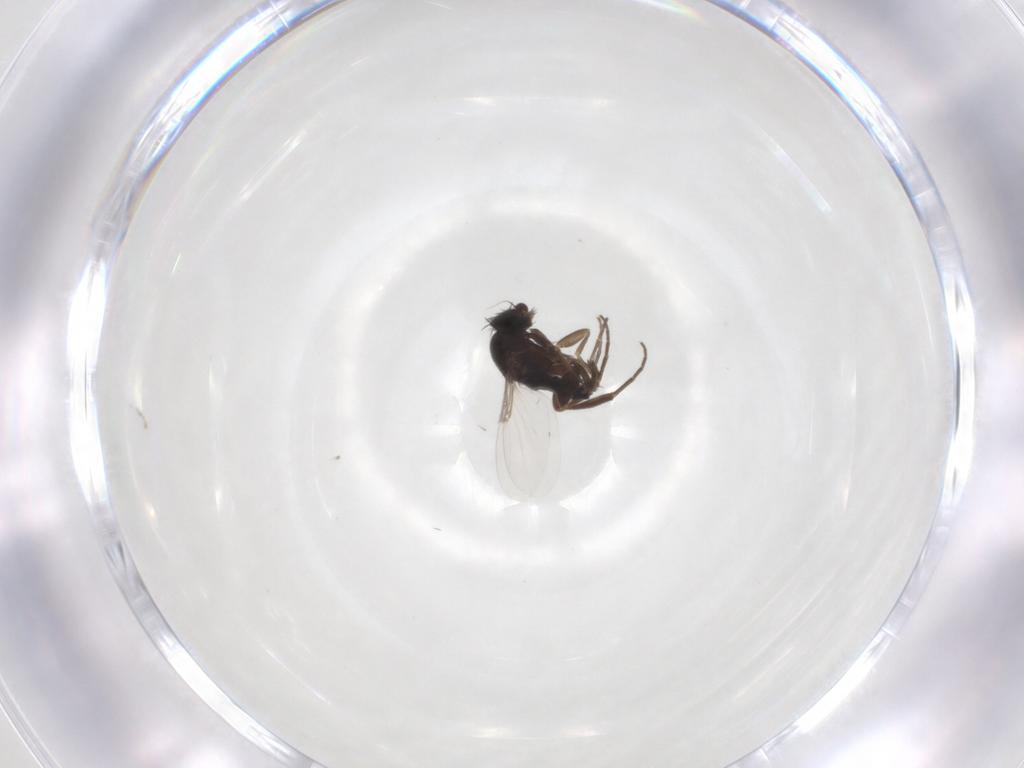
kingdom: Animalia
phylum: Arthropoda
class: Insecta
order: Diptera
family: Phoridae
